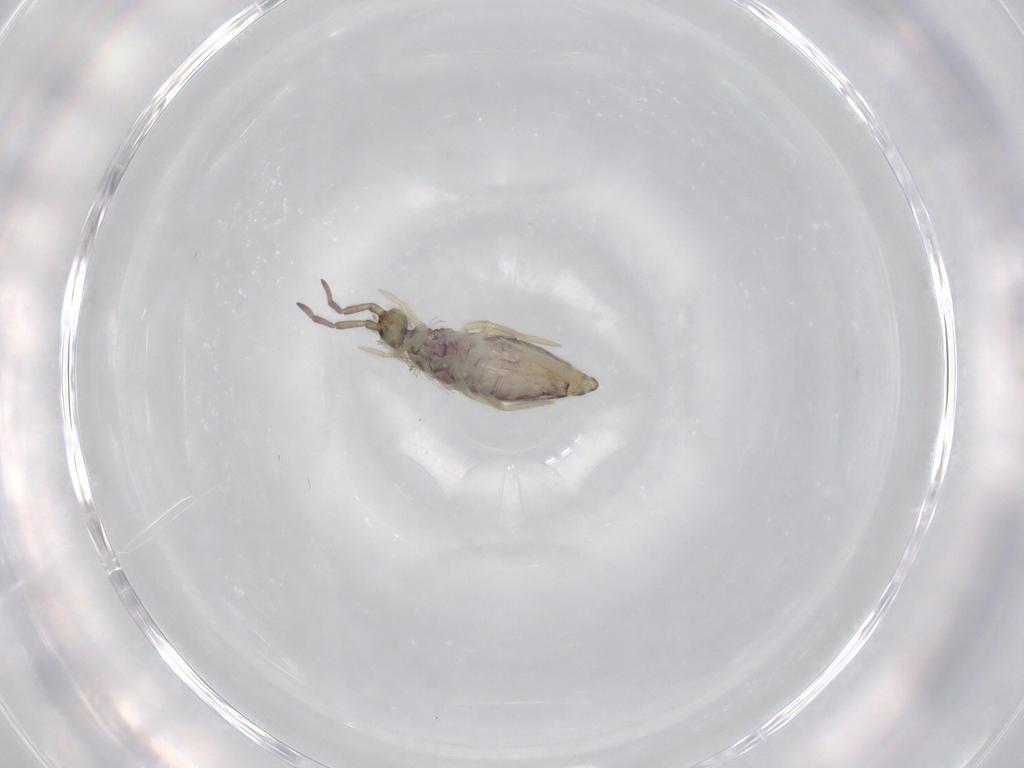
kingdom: Animalia
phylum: Arthropoda
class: Collembola
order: Entomobryomorpha
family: Entomobryidae
